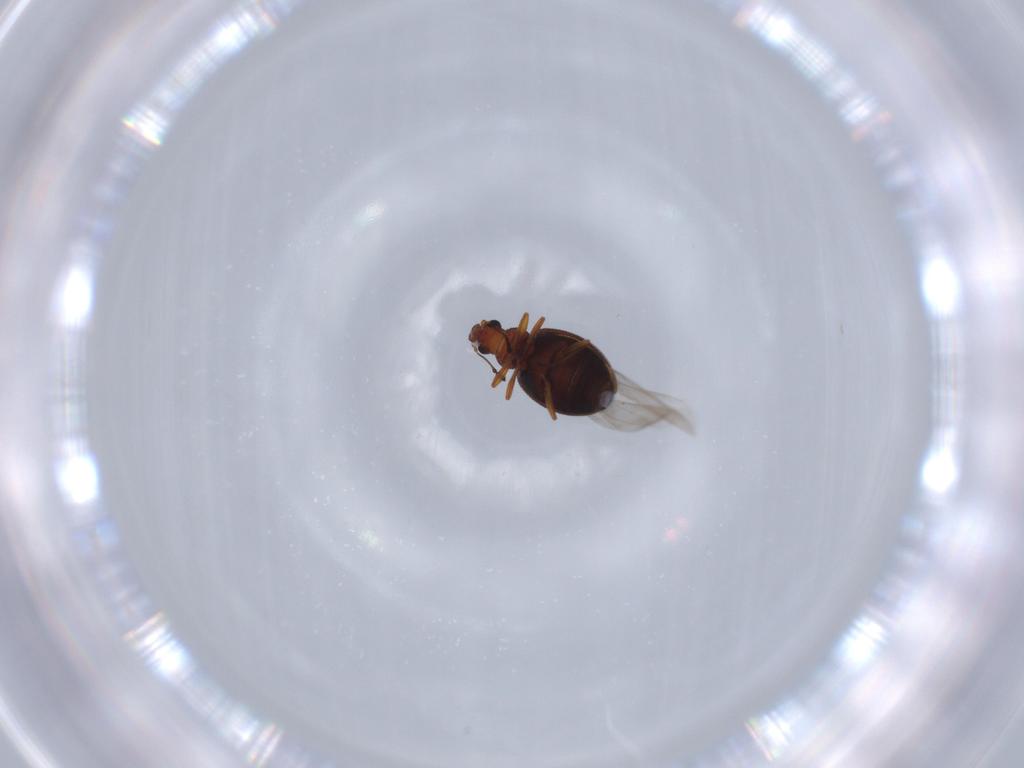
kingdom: Animalia
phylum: Arthropoda
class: Insecta
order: Coleoptera
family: Latridiidae
